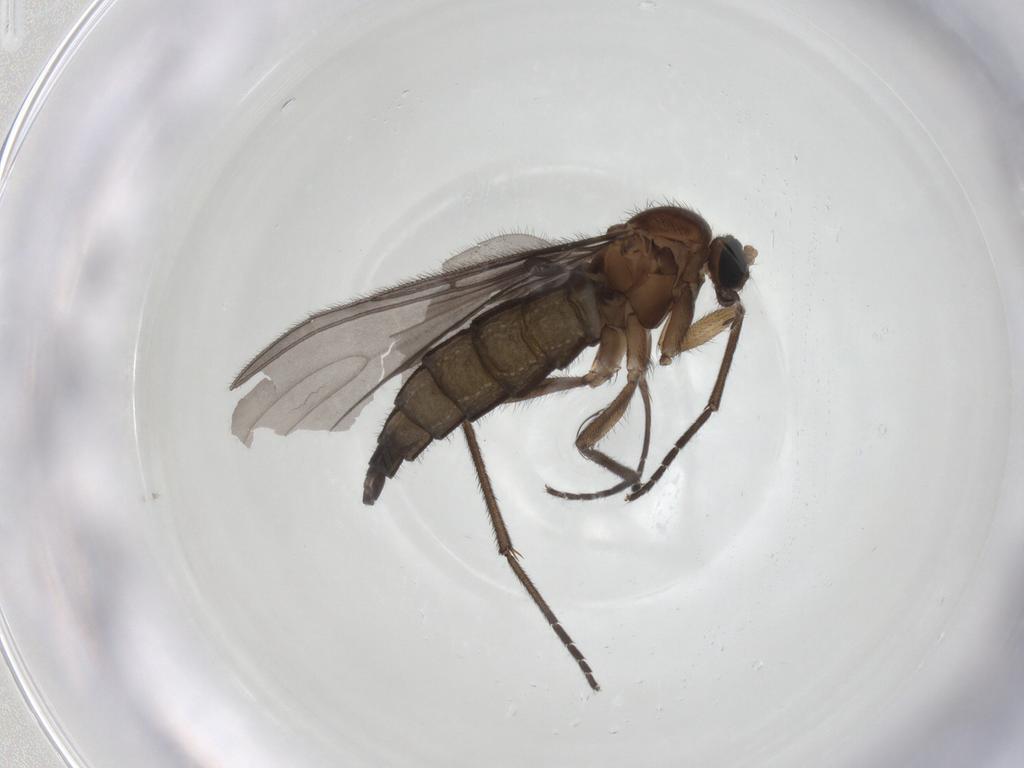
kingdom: Animalia
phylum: Arthropoda
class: Insecta
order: Diptera
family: Sciaridae
